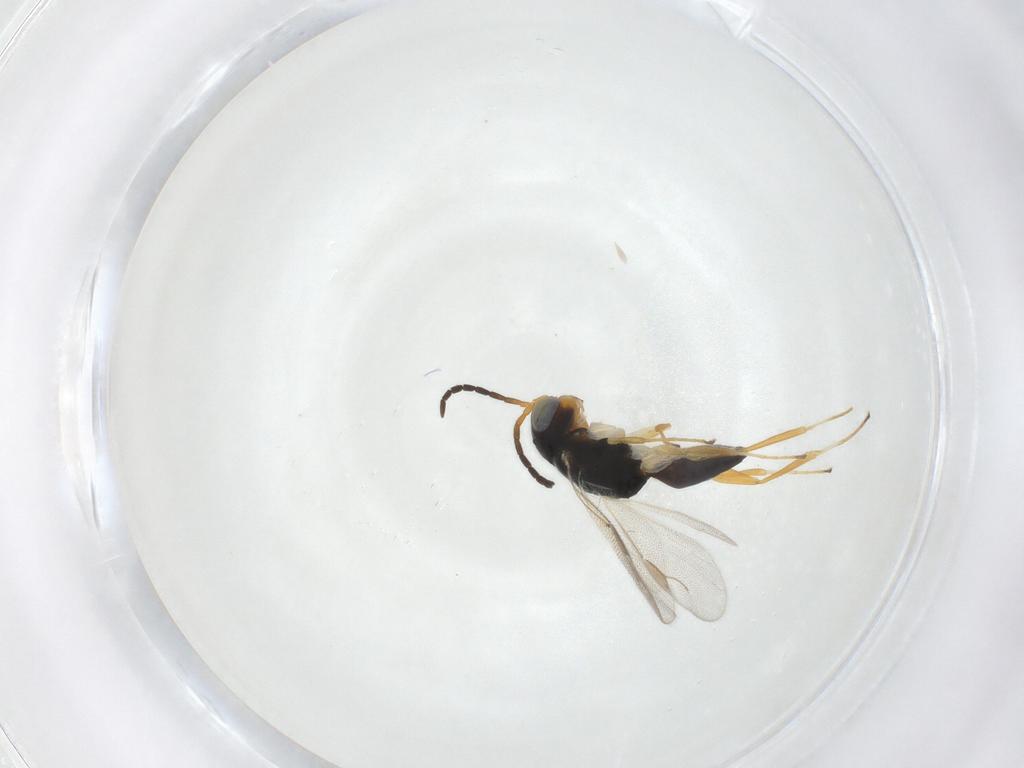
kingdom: Animalia
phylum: Arthropoda
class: Insecta
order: Hymenoptera
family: Dryinidae
